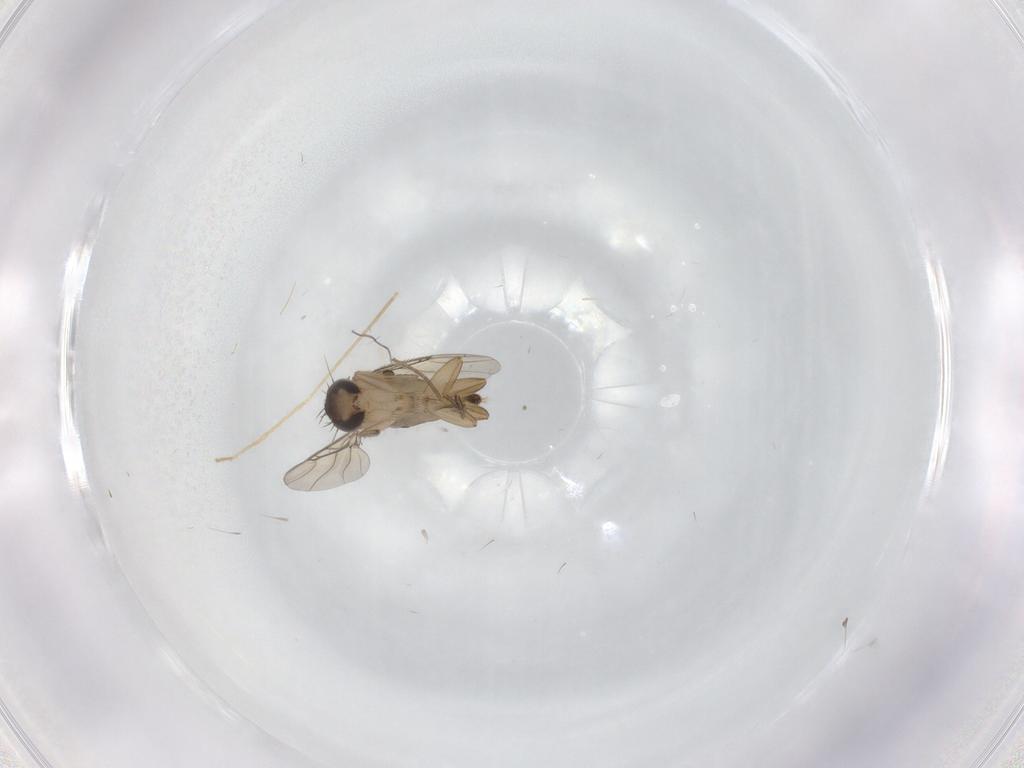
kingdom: Animalia
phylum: Arthropoda
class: Insecta
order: Diptera
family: Phoridae
